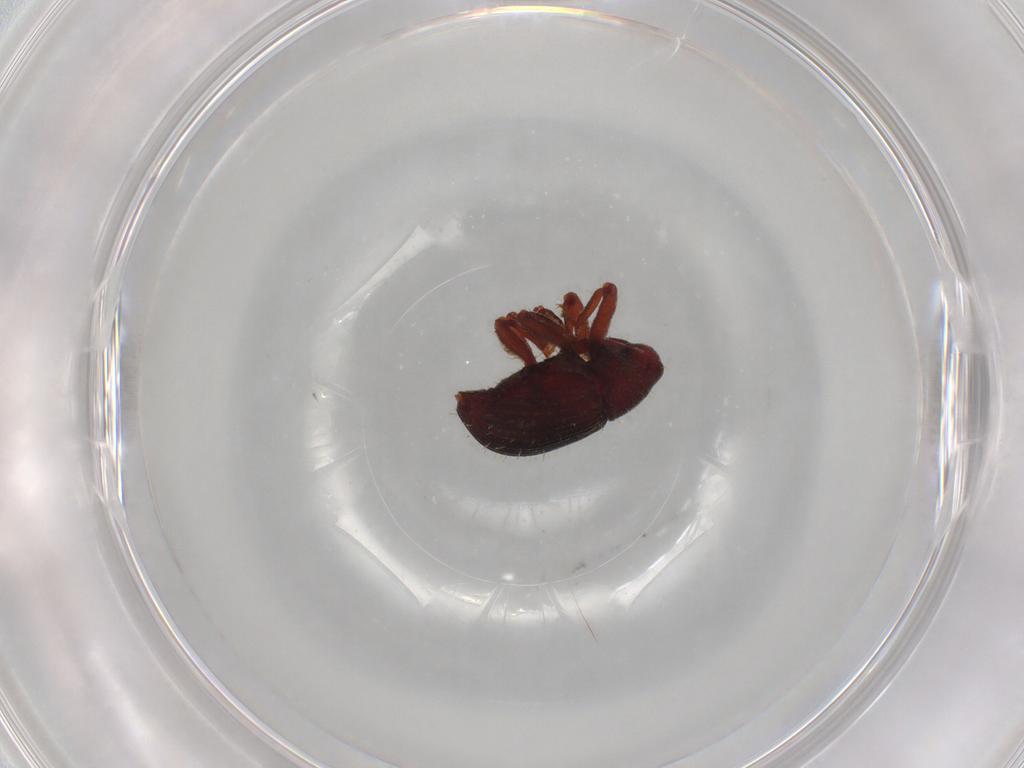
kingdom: Animalia
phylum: Arthropoda
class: Insecta
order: Coleoptera
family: Curculionidae
